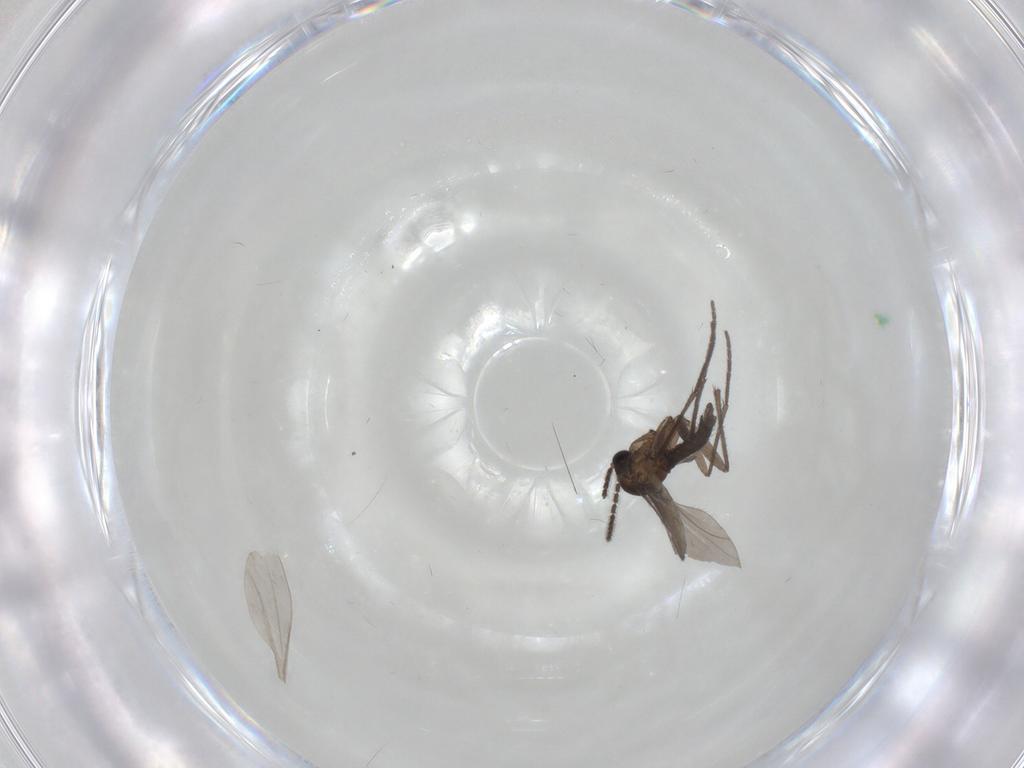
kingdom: Animalia
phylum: Arthropoda
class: Insecta
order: Diptera
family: Sciaridae
